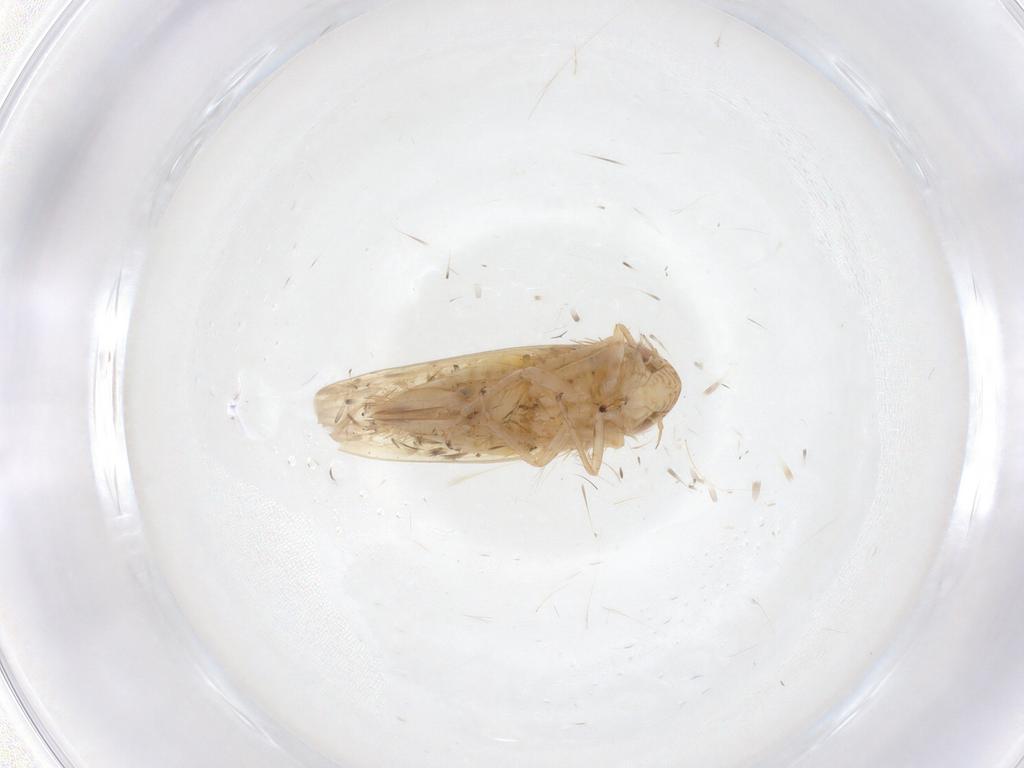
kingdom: Animalia
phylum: Arthropoda
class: Insecta
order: Hemiptera
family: Cicadellidae
